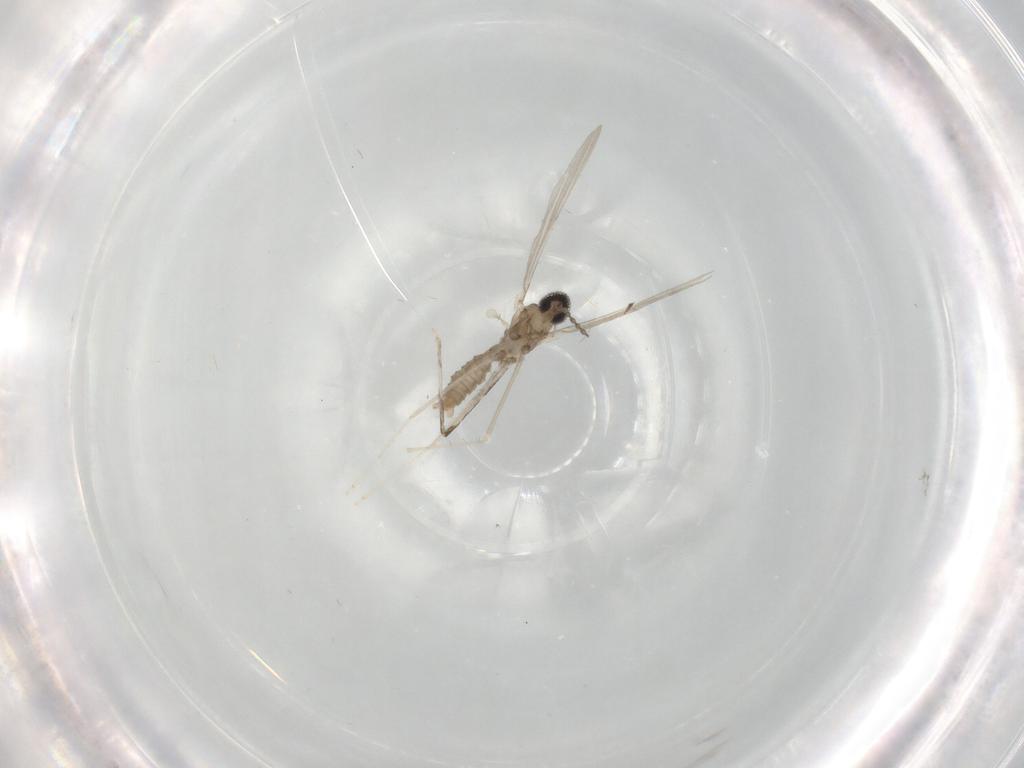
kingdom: Animalia
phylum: Arthropoda
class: Insecta
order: Diptera
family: Cecidomyiidae
